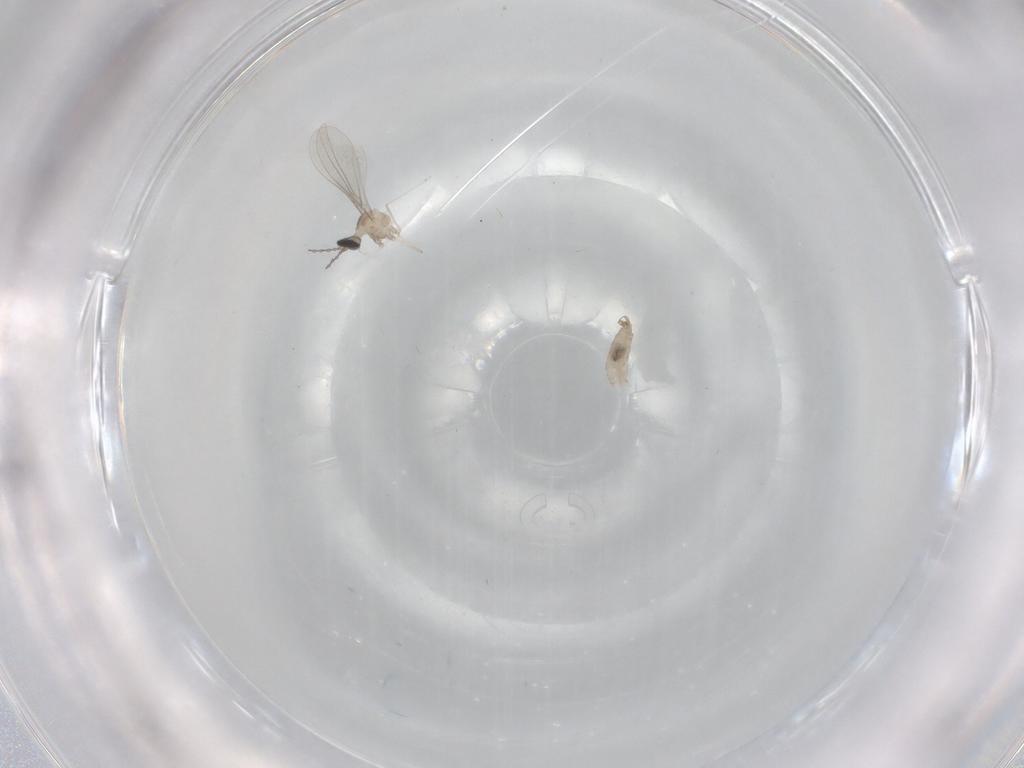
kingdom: Animalia
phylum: Arthropoda
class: Insecta
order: Diptera
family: Cecidomyiidae
